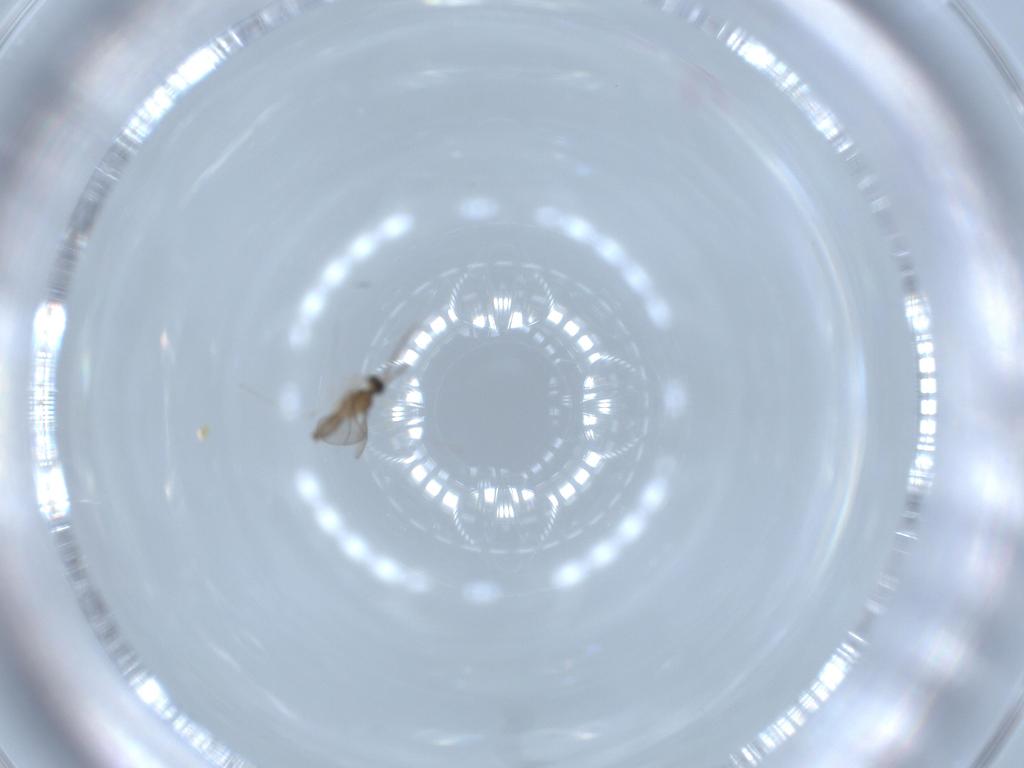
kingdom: Animalia
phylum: Arthropoda
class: Insecta
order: Diptera
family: Cecidomyiidae
